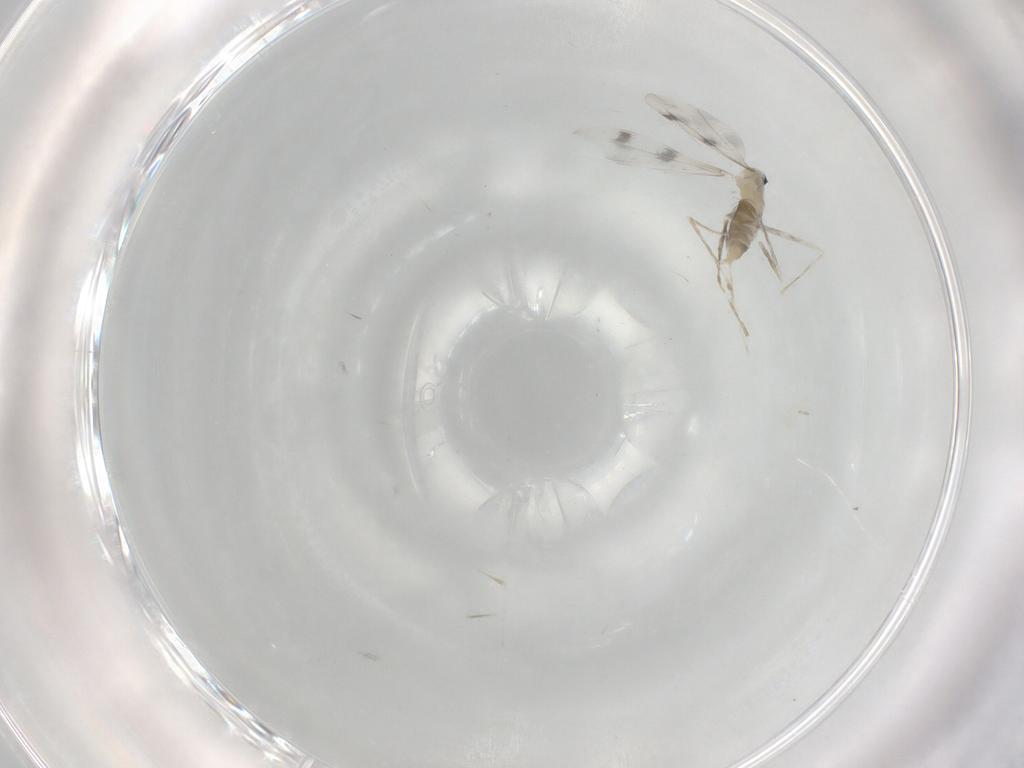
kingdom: Animalia
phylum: Arthropoda
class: Insecta
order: Diptera
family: Cecidomyiidae
